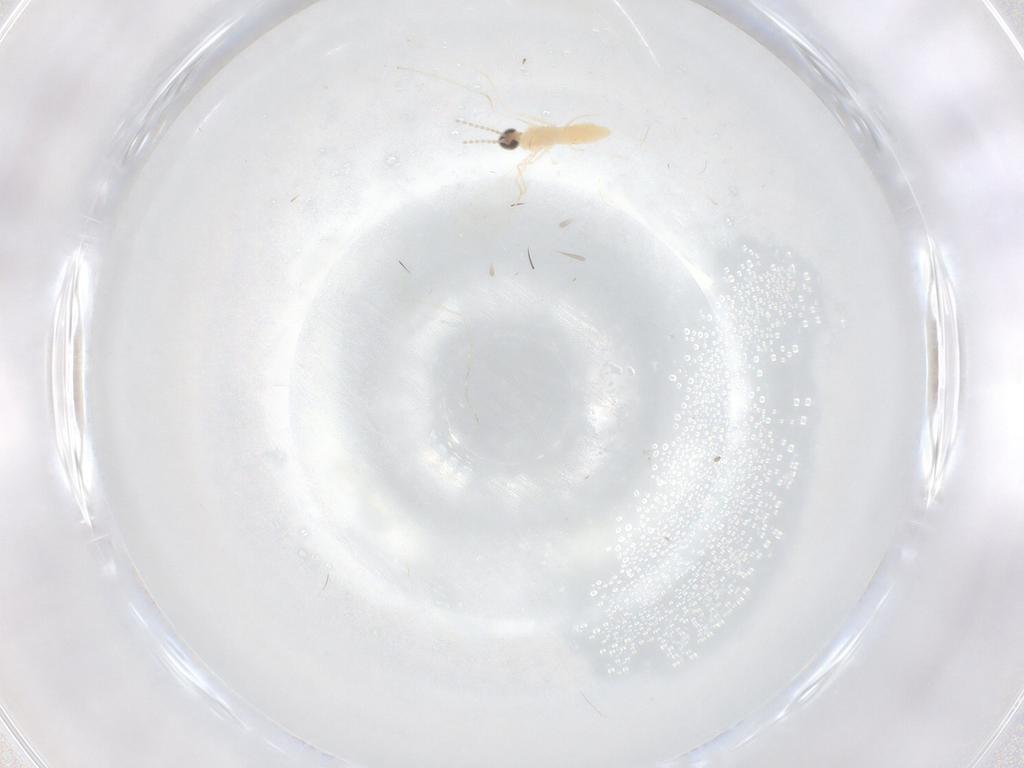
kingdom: Animalia
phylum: Arthropoda
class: Insecta
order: Diptera
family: Cecidomyiidae
